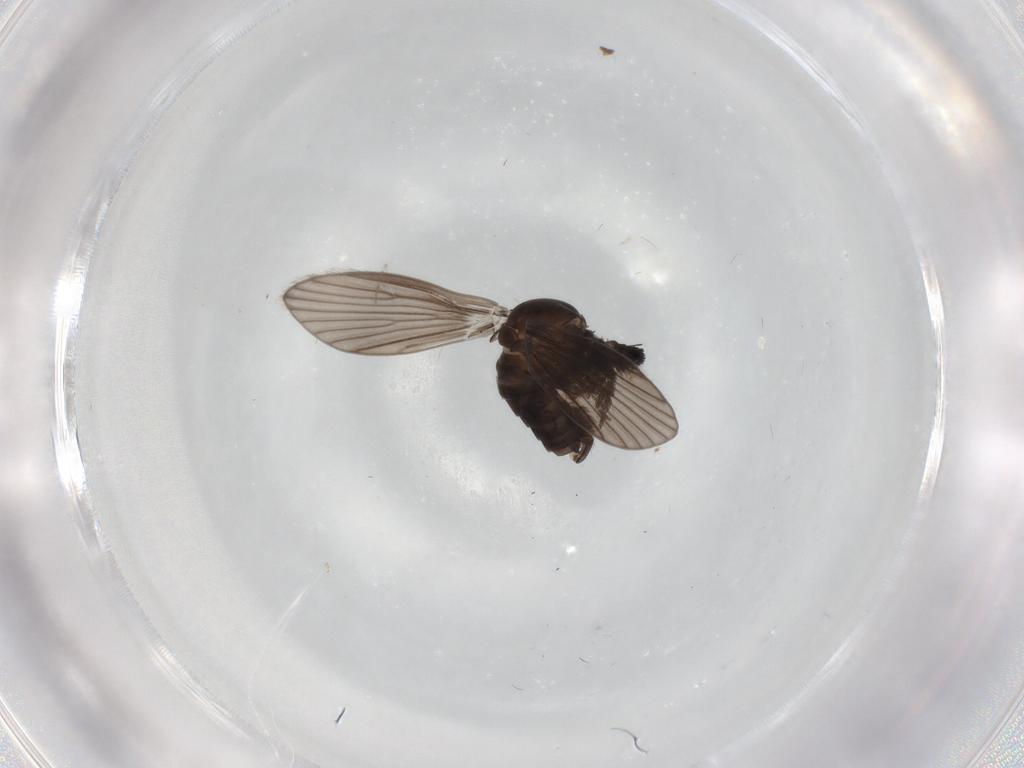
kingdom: Animalia
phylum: Arthropoda
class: Insecta
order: Diptera
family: Psychodidae
